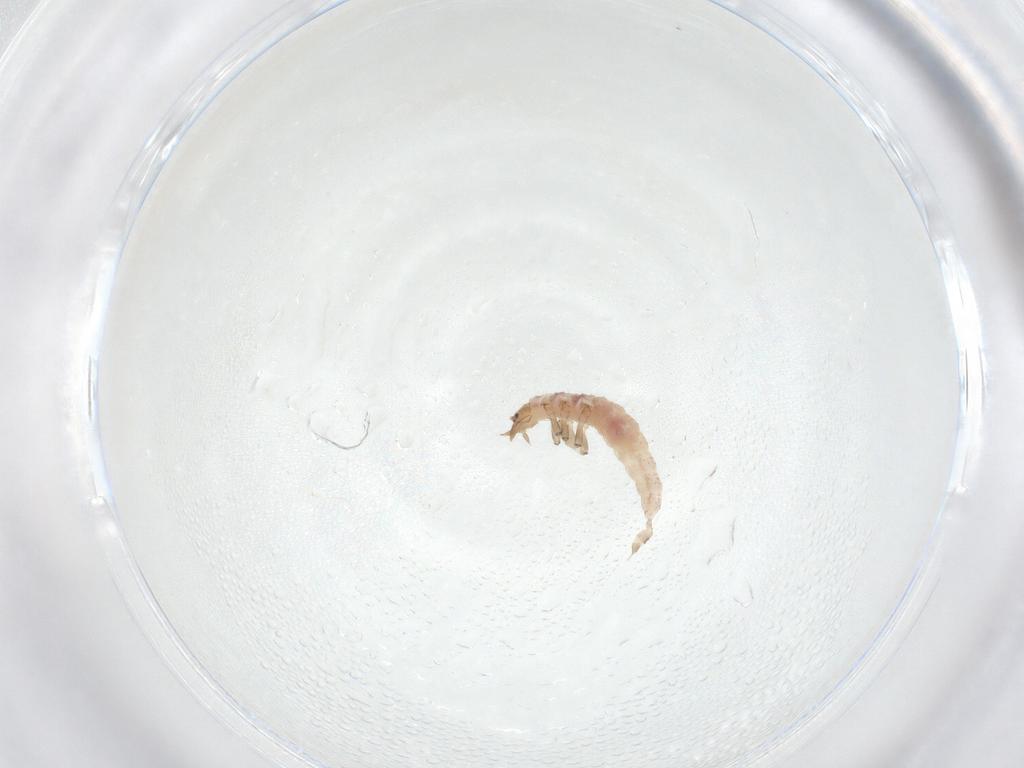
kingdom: Animalia
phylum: Arthropoda
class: Insecta
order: Neuroptera
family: Hemerobiidae
